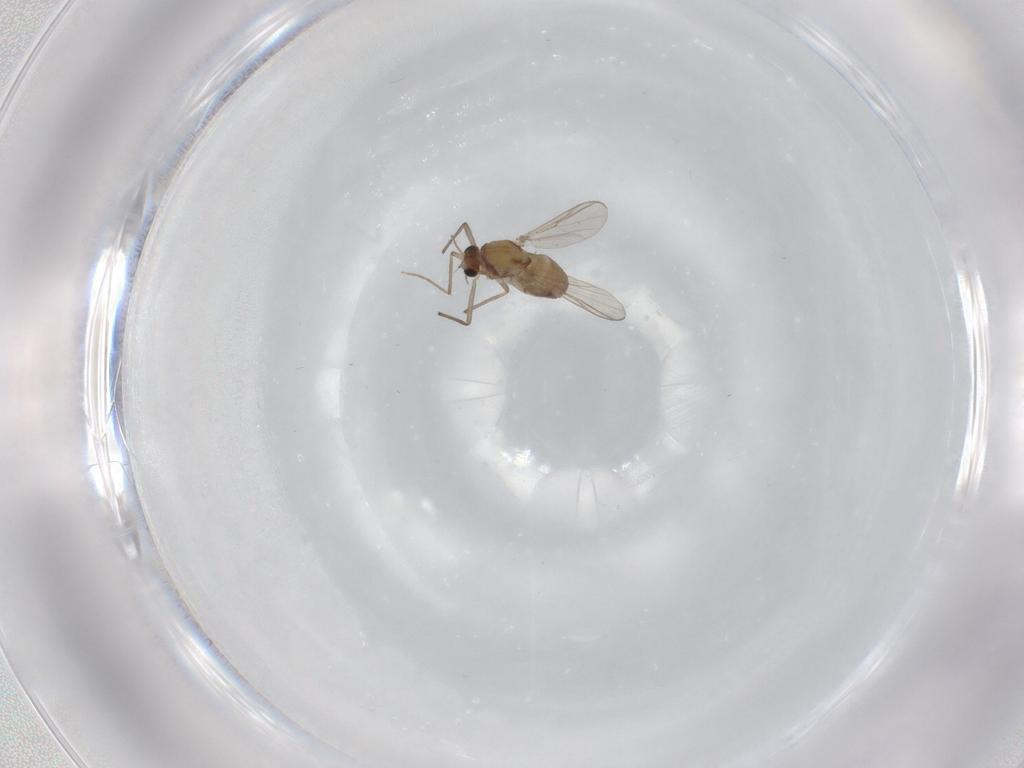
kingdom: Animalia
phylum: Arthropoda
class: Insecta
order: Diptera
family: Chironomidae
